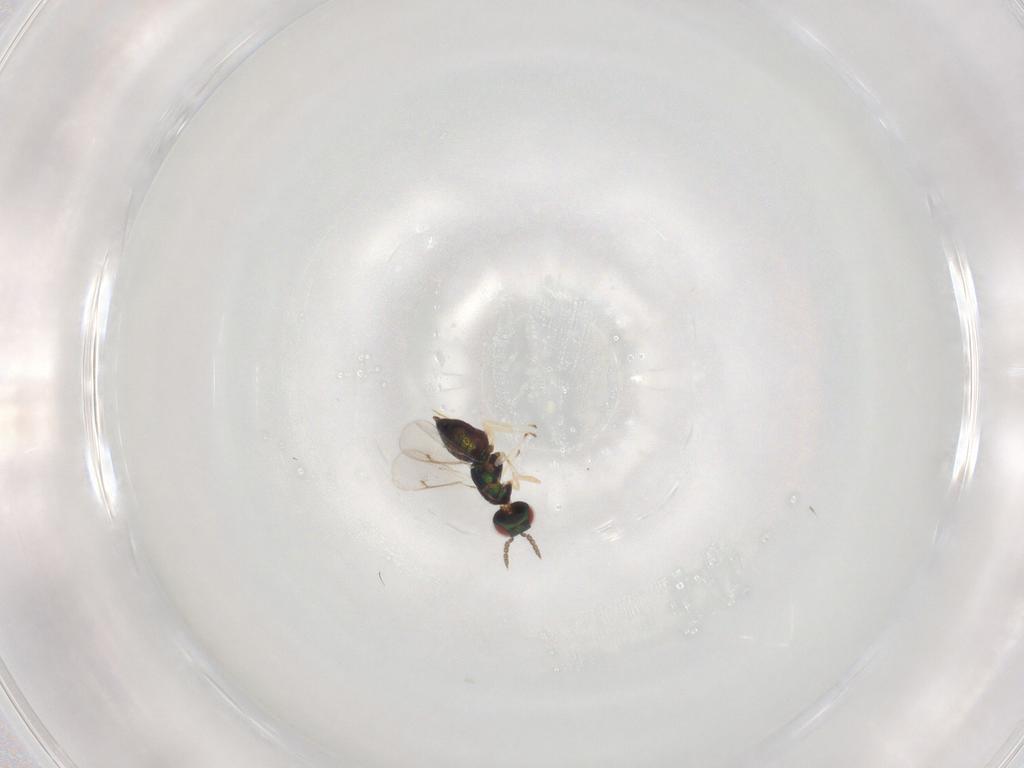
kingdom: Animalia
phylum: Arthropoda
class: Insecta
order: Hymenoptera
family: Eulophidae
